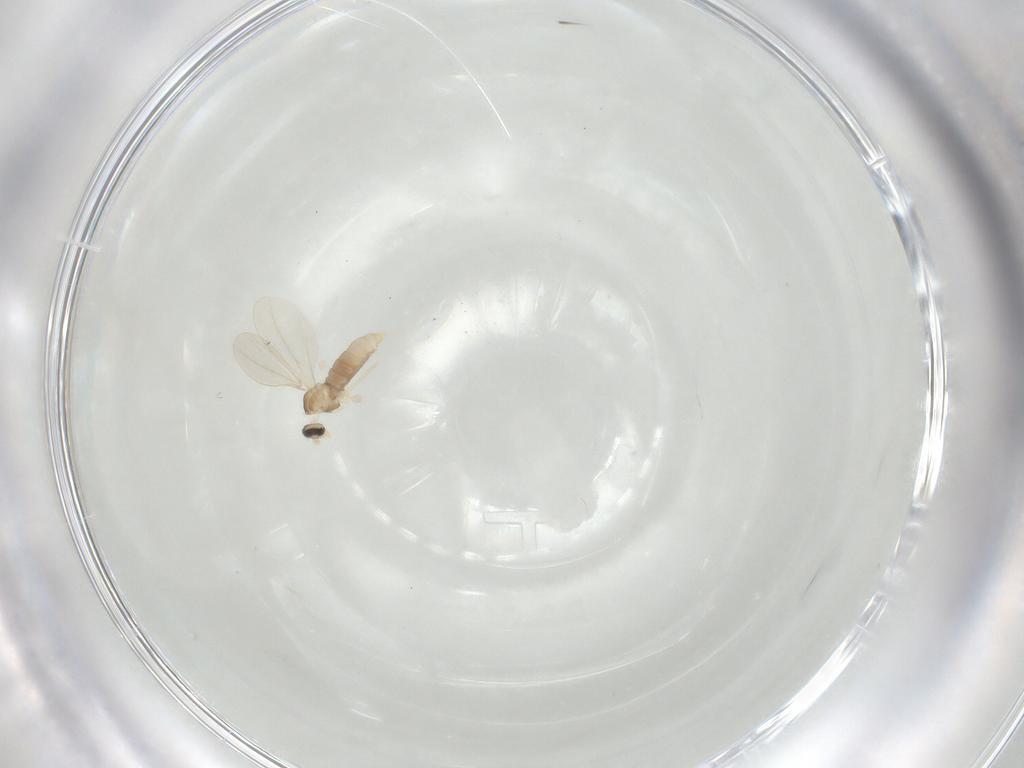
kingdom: Animalia
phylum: Arthropoda
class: Insecta
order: Diptera
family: Cecidomyiidae
